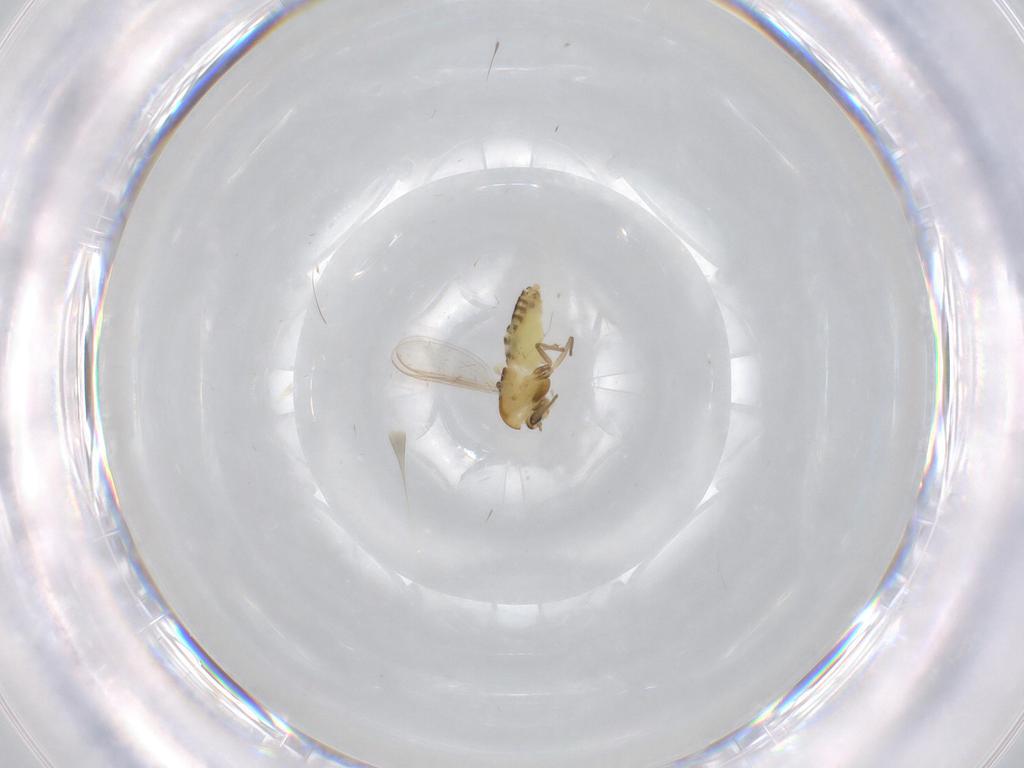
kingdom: Animalia
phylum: Arthropoda
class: Insecta
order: Diptera
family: Chironomidae
